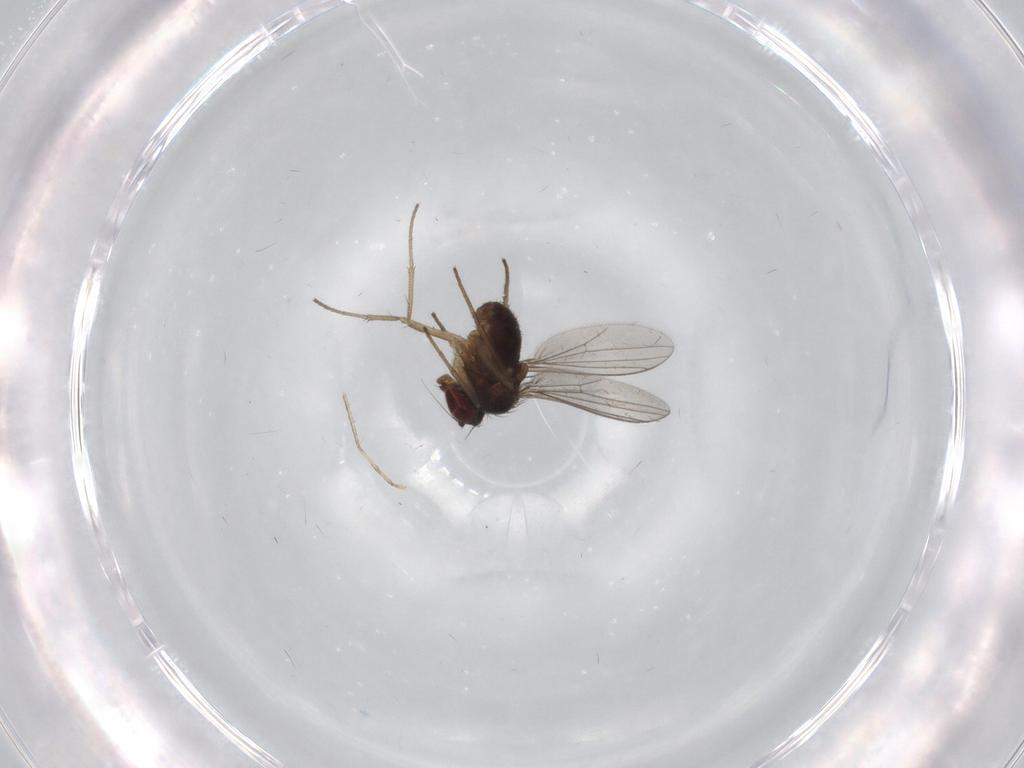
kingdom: Animalia
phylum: Arthropoda
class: Insecta
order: Diptera
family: Dolichopodidae
